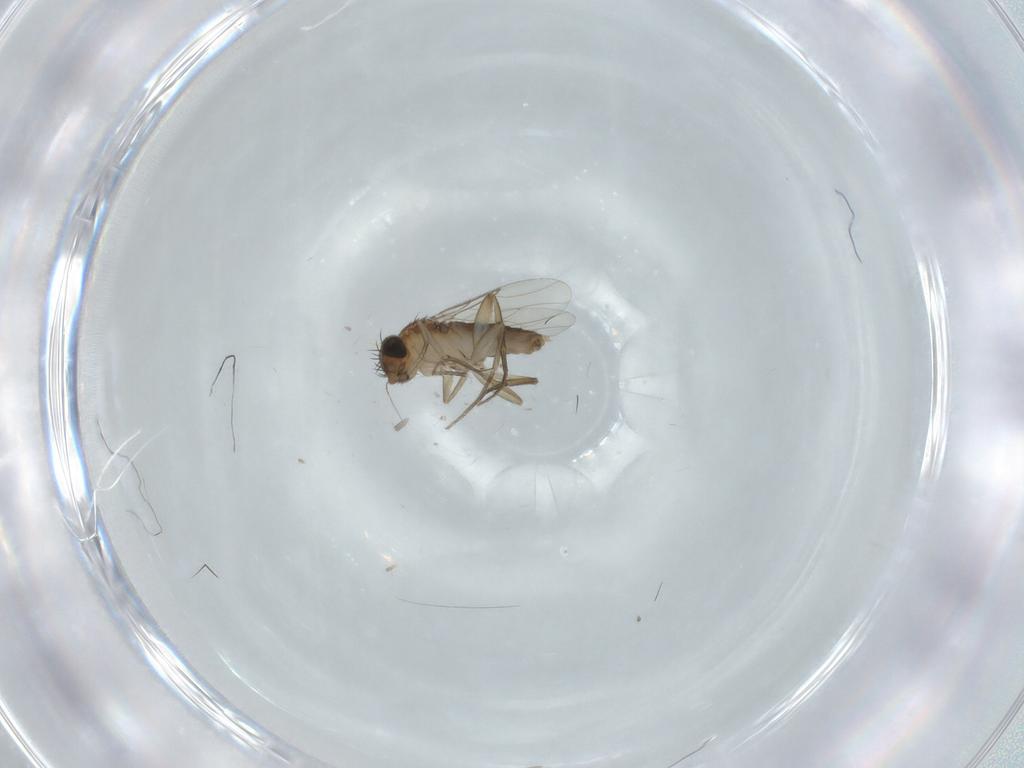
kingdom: Animalia
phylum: Arthropoda
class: Insecta
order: Diptera
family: Phoridae
